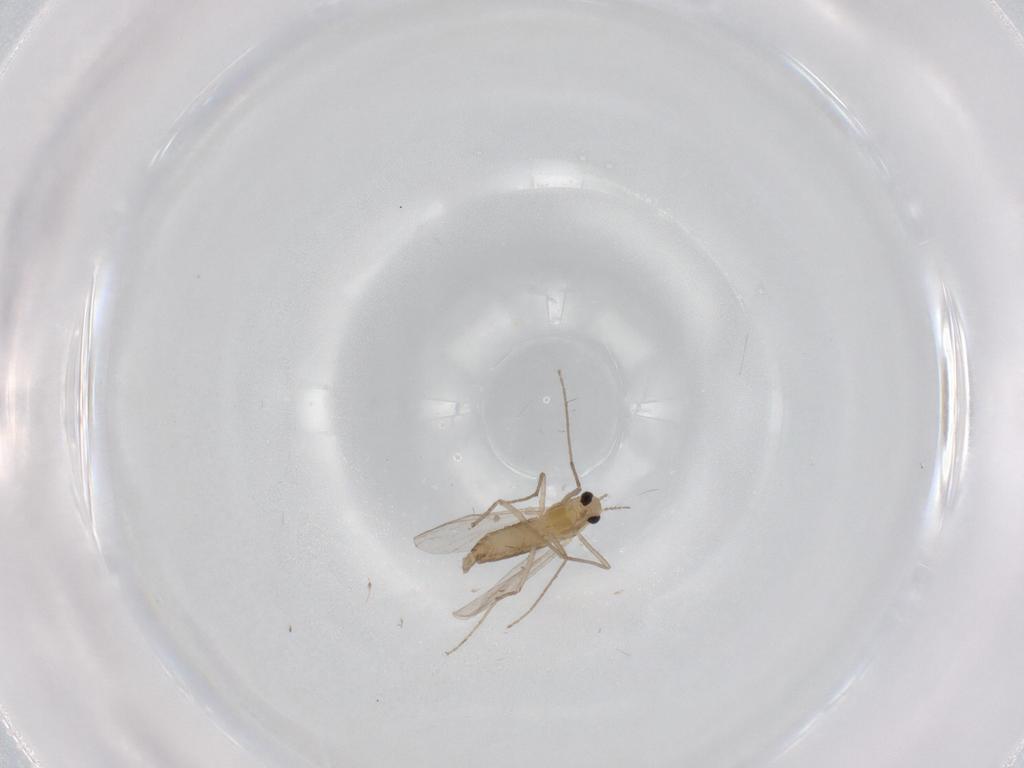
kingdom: Animalia
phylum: Arthropoda
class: Insecta
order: Diptera
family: Chironomidae
